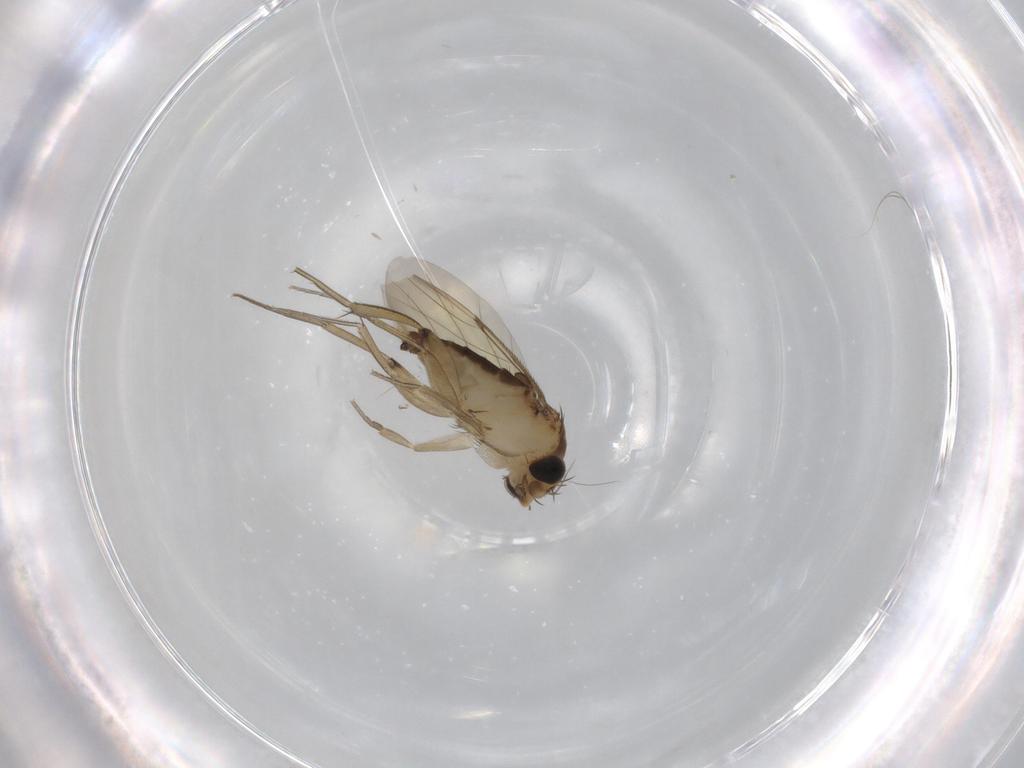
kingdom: Animalia
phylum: Arthropoda
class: Insecta
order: Diptera
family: Phoridae
